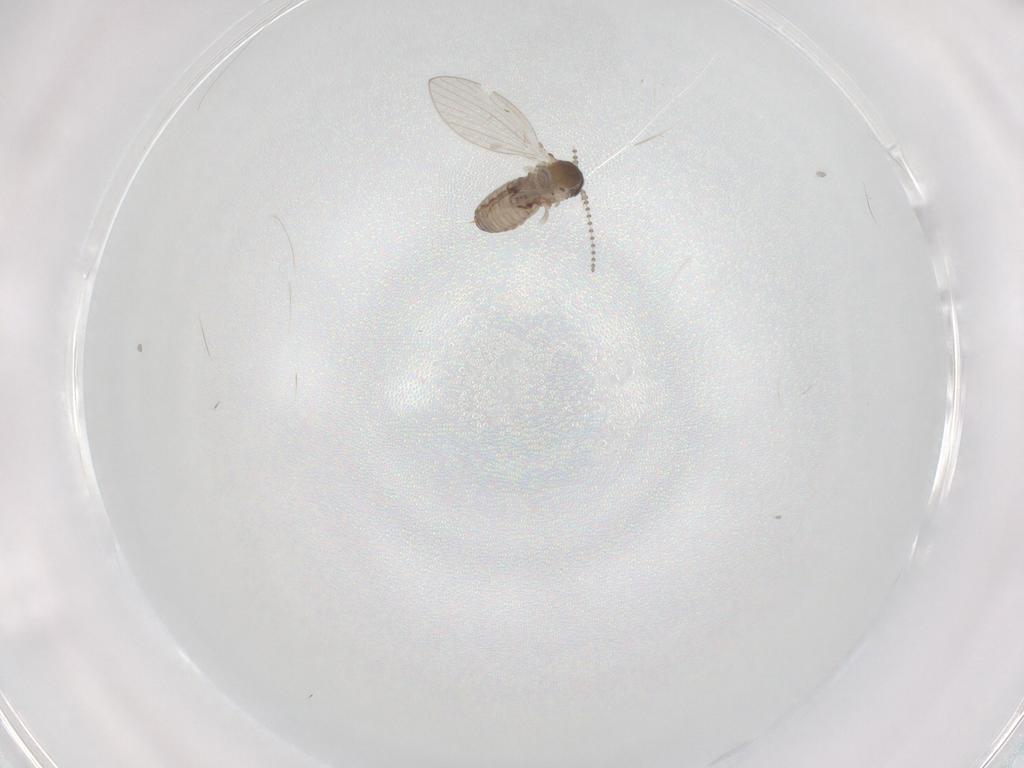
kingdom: Animalia
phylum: Arthropoda
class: Insecta
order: Diptera
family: Psychodidae
